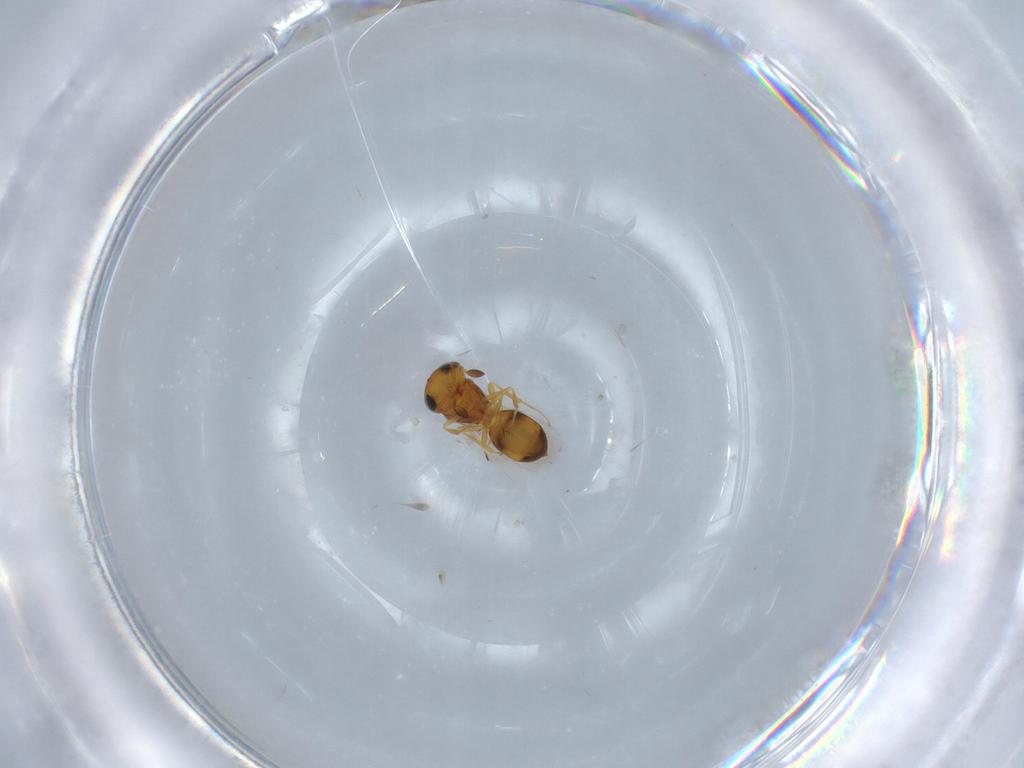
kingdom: Animalia
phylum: Arthropoda
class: Insecta
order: Hymenoptera
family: Scelionidae
